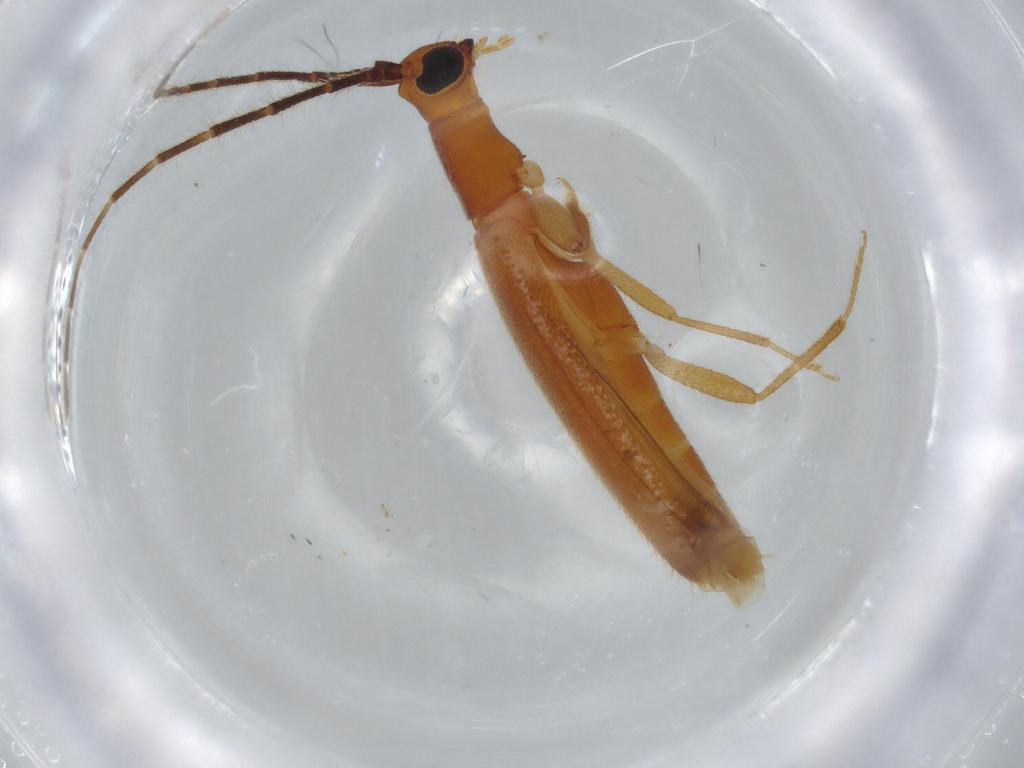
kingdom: Animalia
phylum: Arthropoda
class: Insecta
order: Coleoptera
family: Cerambycidae
